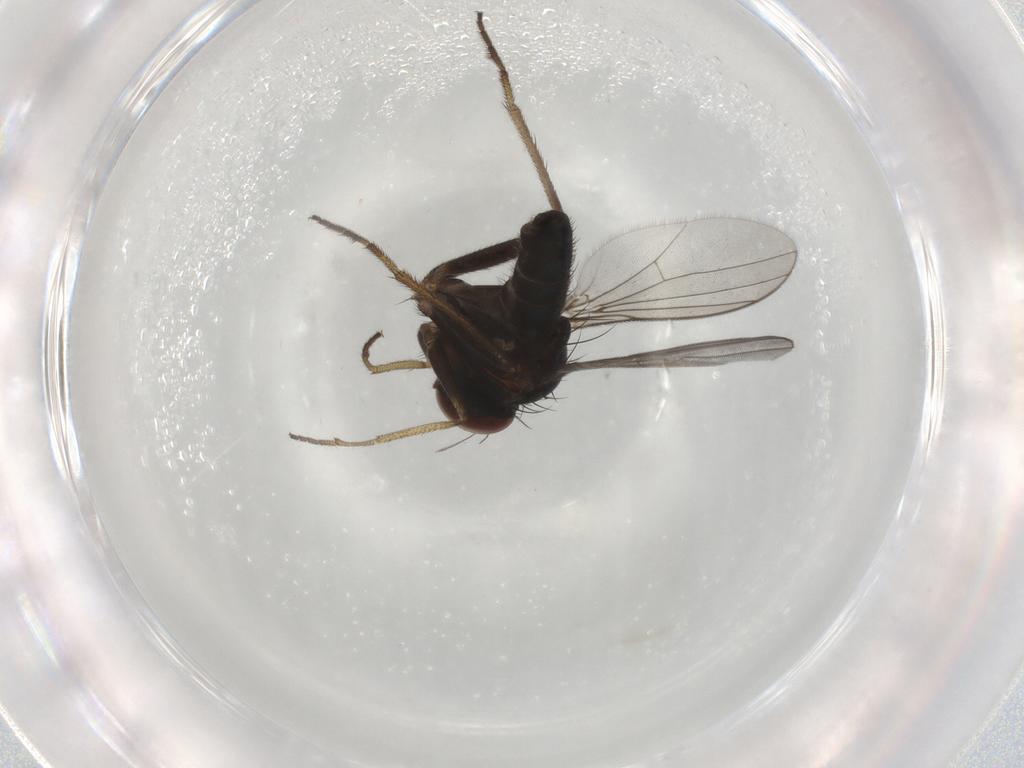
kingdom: Animalia
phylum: Arthropoda
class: Insecta
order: Diptera
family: Dolichopodidae
